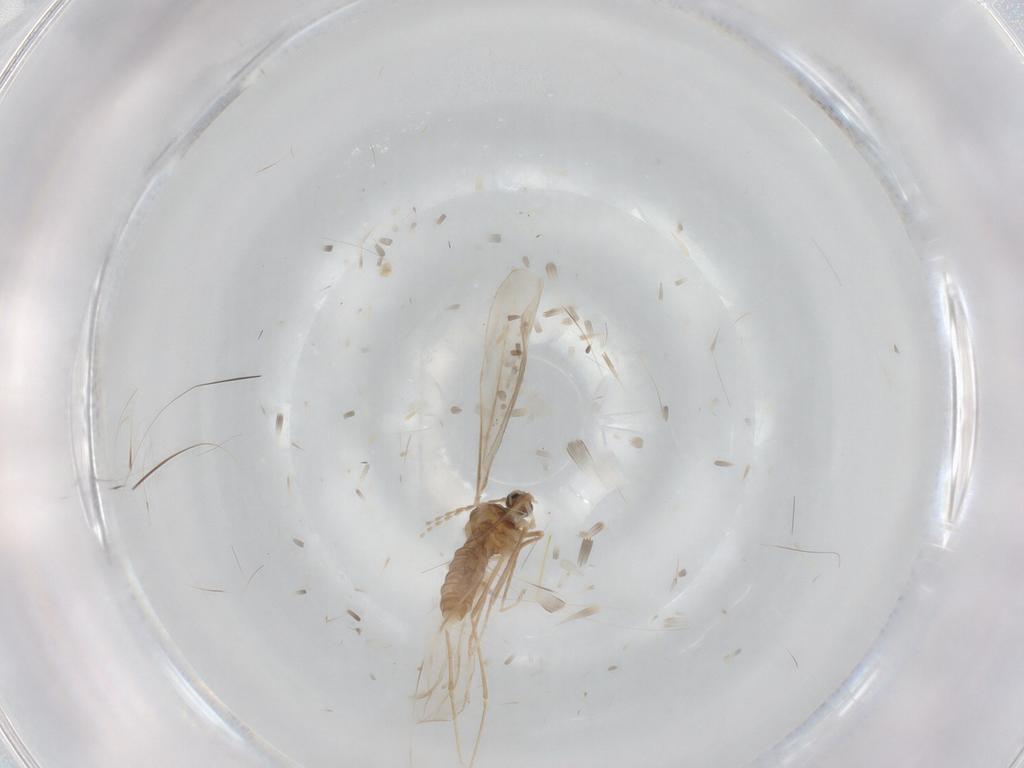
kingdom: Animalia
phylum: Arthropoda
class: Insecta
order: Diptera
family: Cecidomyiidae
